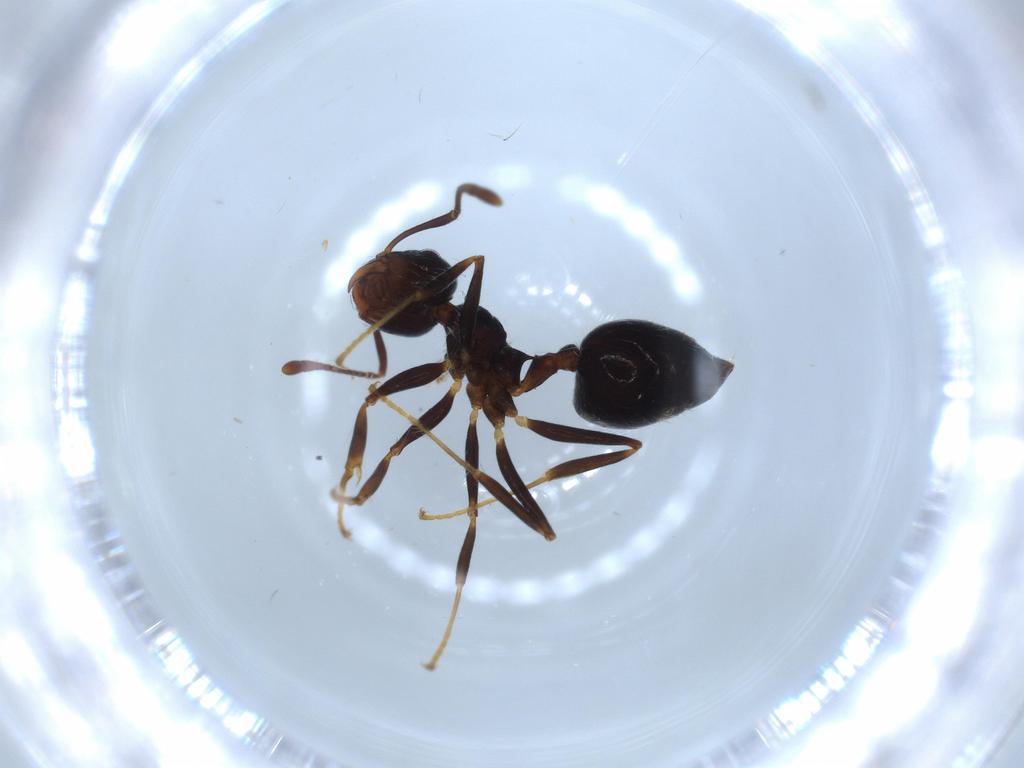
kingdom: Animalia
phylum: Arthropoda
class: Insecta
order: Hymenoptera
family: Formicidae
